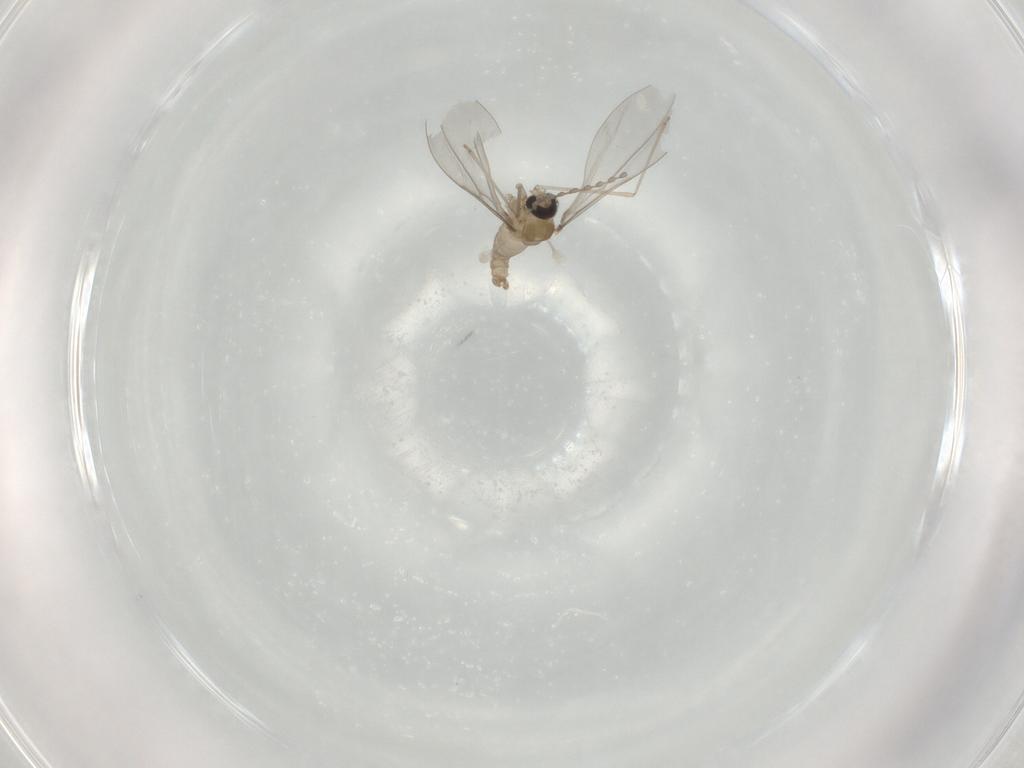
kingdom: Animalia
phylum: Arthropoda
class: Insecta
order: Diptera
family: Cecidomyiidae
